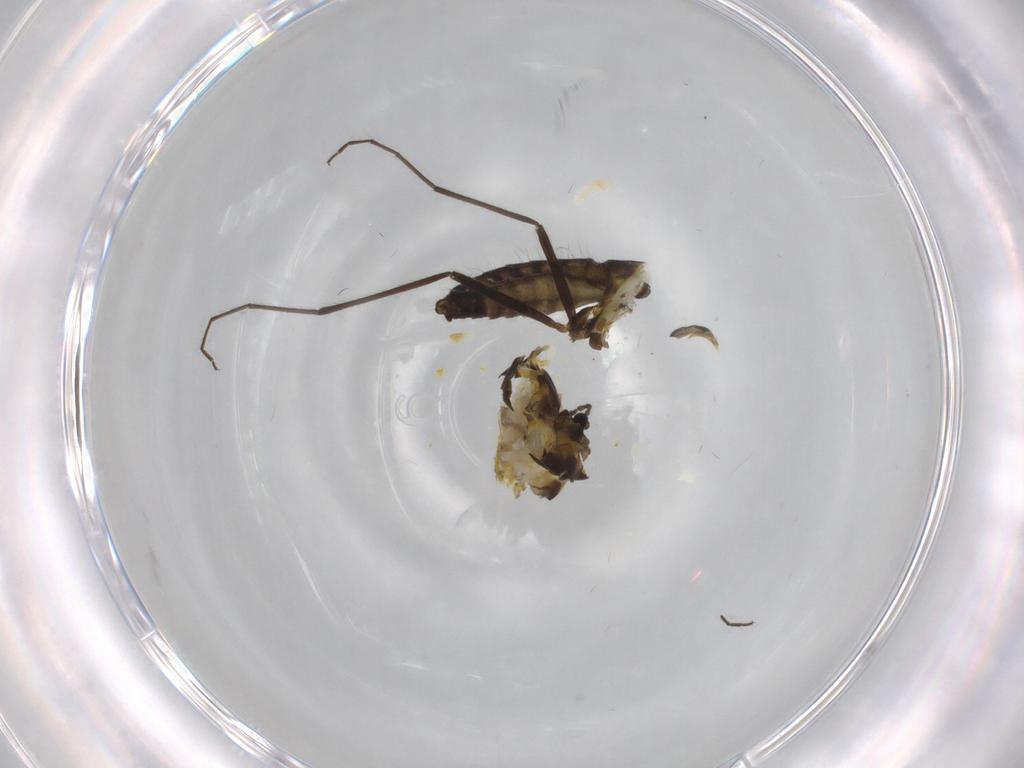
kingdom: Animalia
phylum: Arthropoda
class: Insecta
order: Diptera
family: Chironomidae
